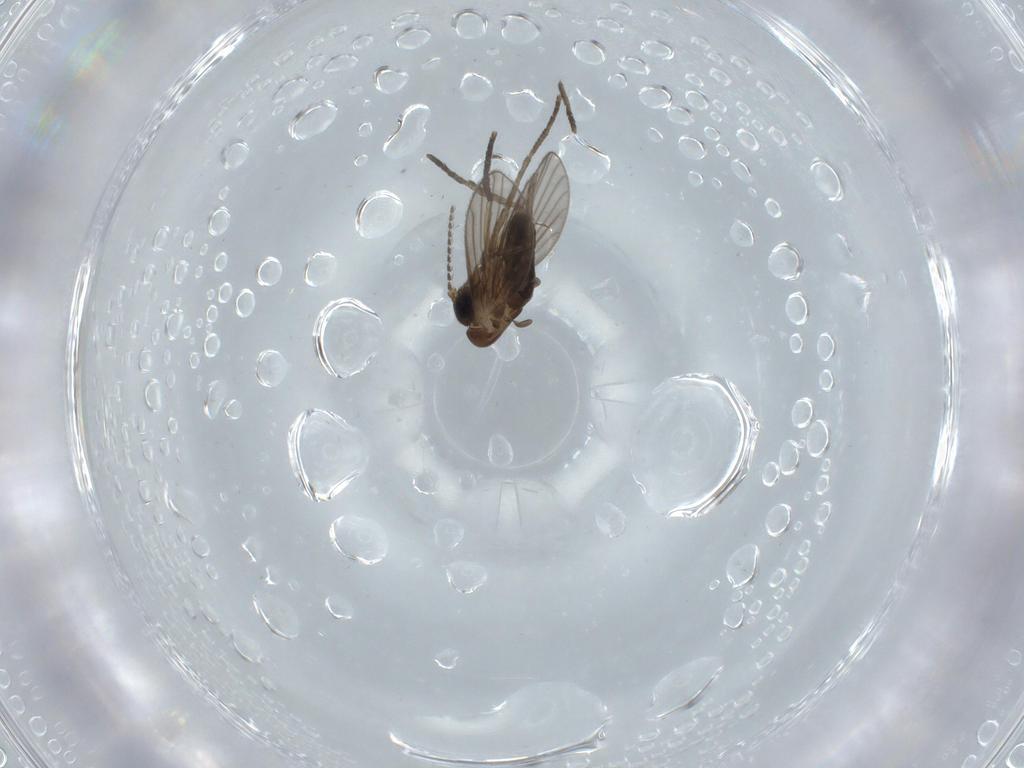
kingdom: Animalia
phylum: Arthropoda
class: Insecta
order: Diptera
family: Psychodidae
